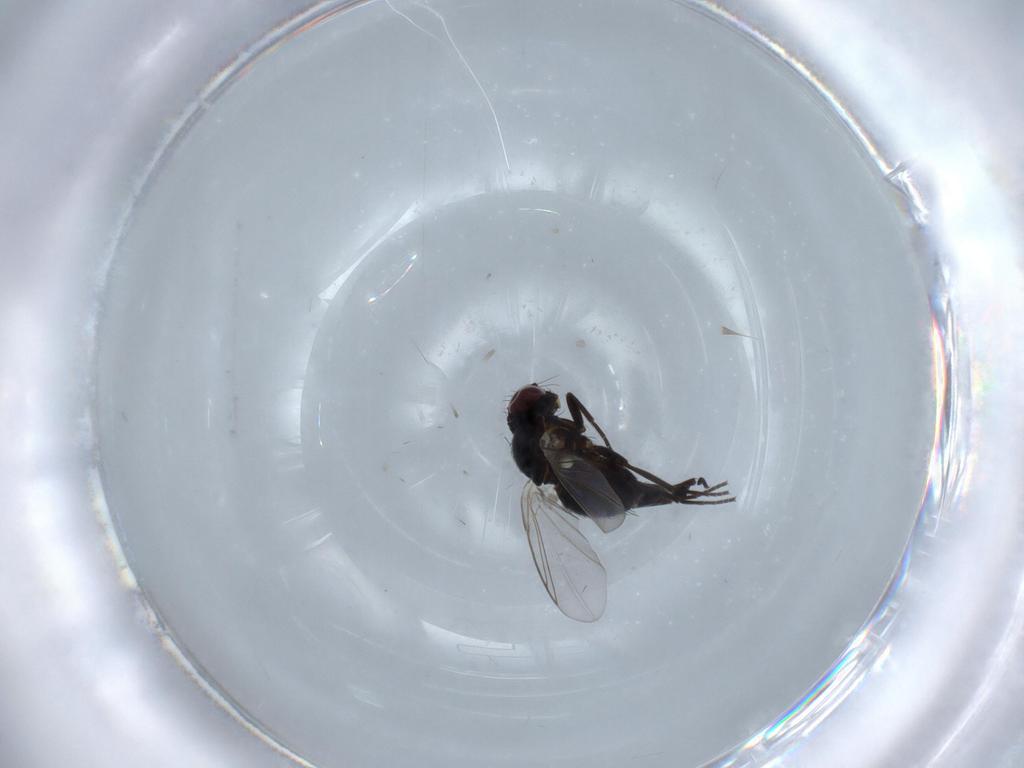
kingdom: Animalia
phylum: Arthropoda
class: Insecta
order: Diptera
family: Agromyzidae
